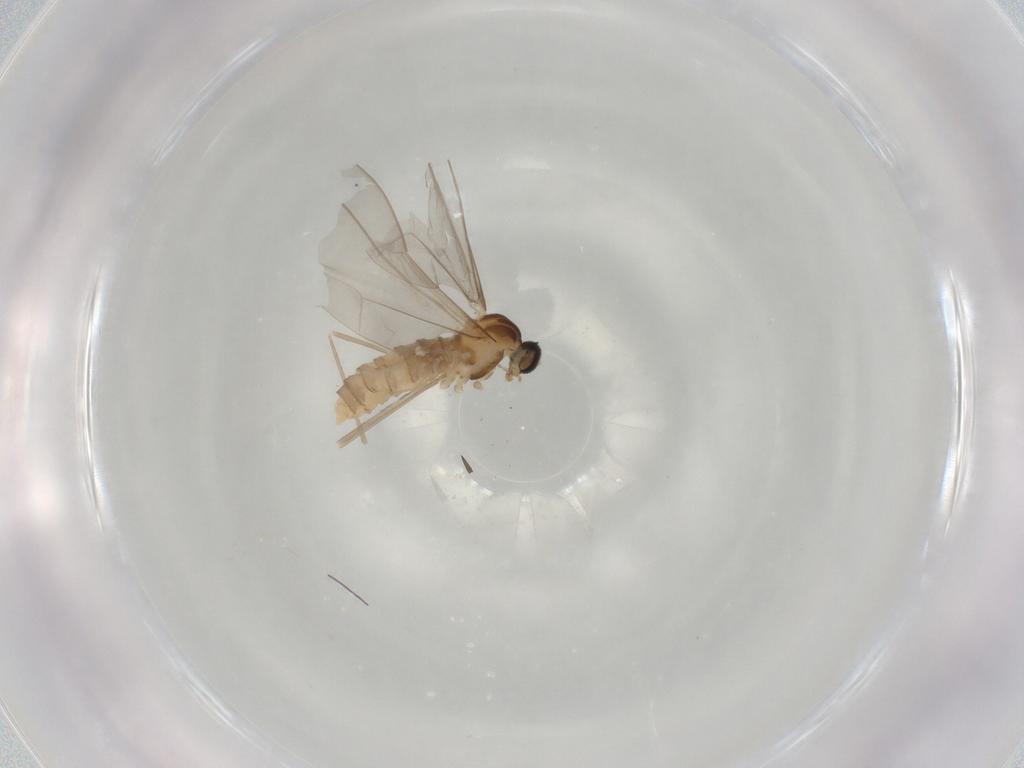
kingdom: Animalia
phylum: Arthropoda
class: Insecta
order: Diptera
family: Cecidomyiidae
